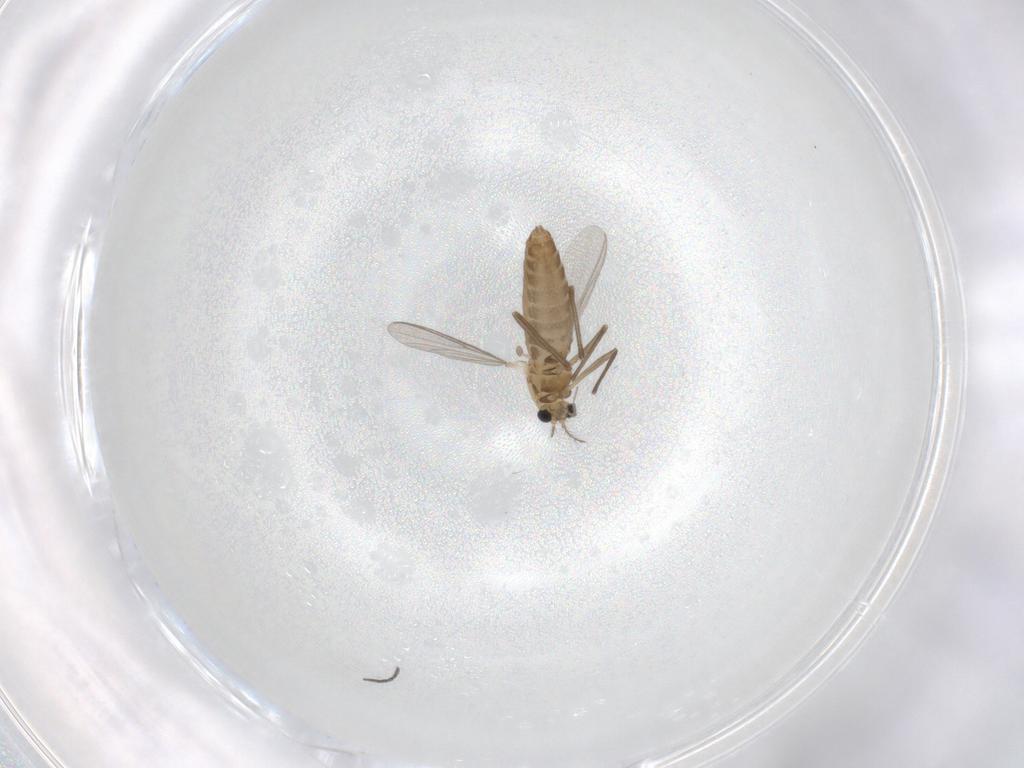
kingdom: Animalia
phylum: Arthropoda
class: Insecta
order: Diptera
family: Chironomidae
